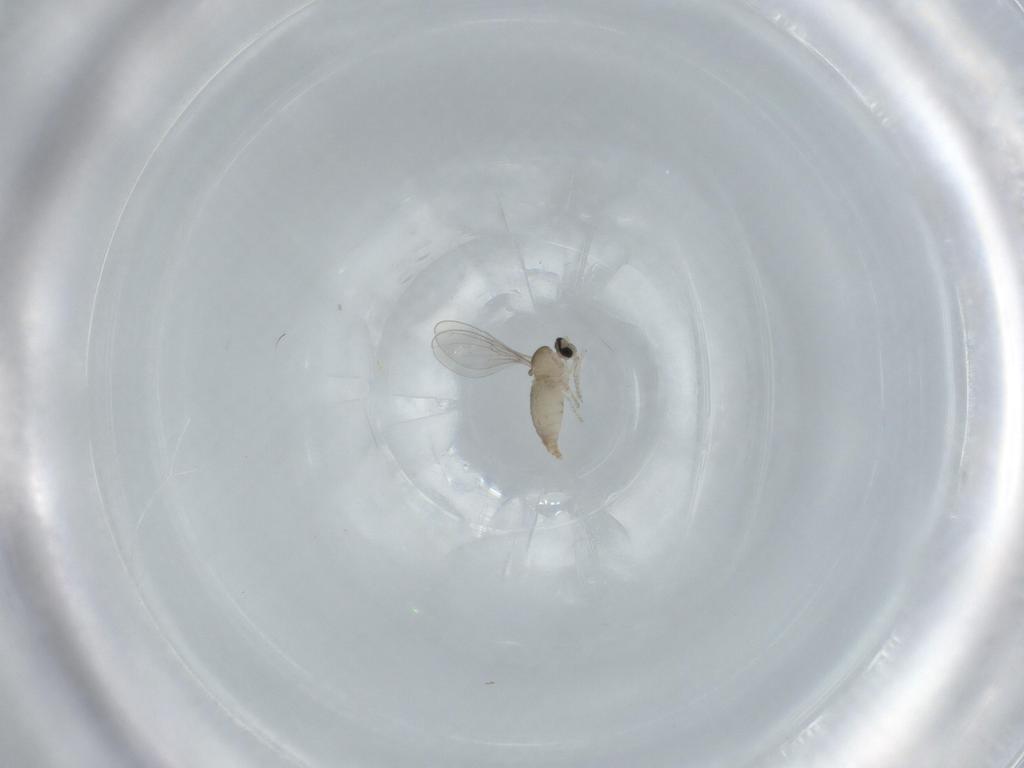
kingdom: Animalia
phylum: Arthropoda
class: Insecta
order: Diptera
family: Cecidomyiidae
